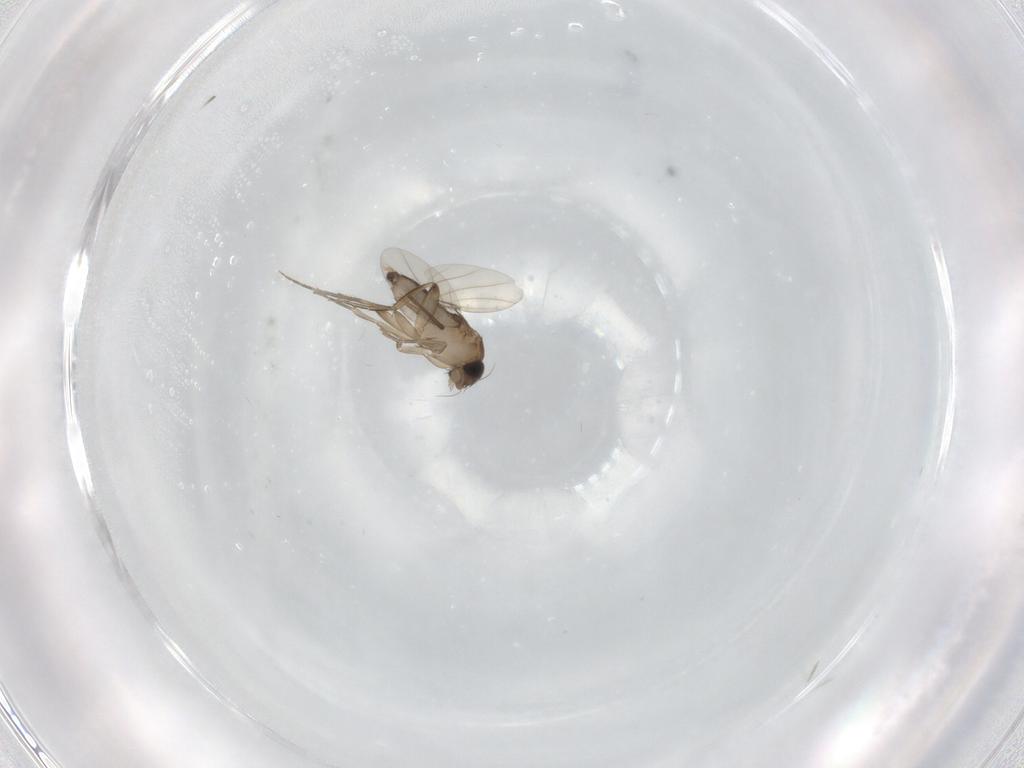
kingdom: Animalia
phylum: Arthropoda
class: Insecta
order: Diptera
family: Phoridae
